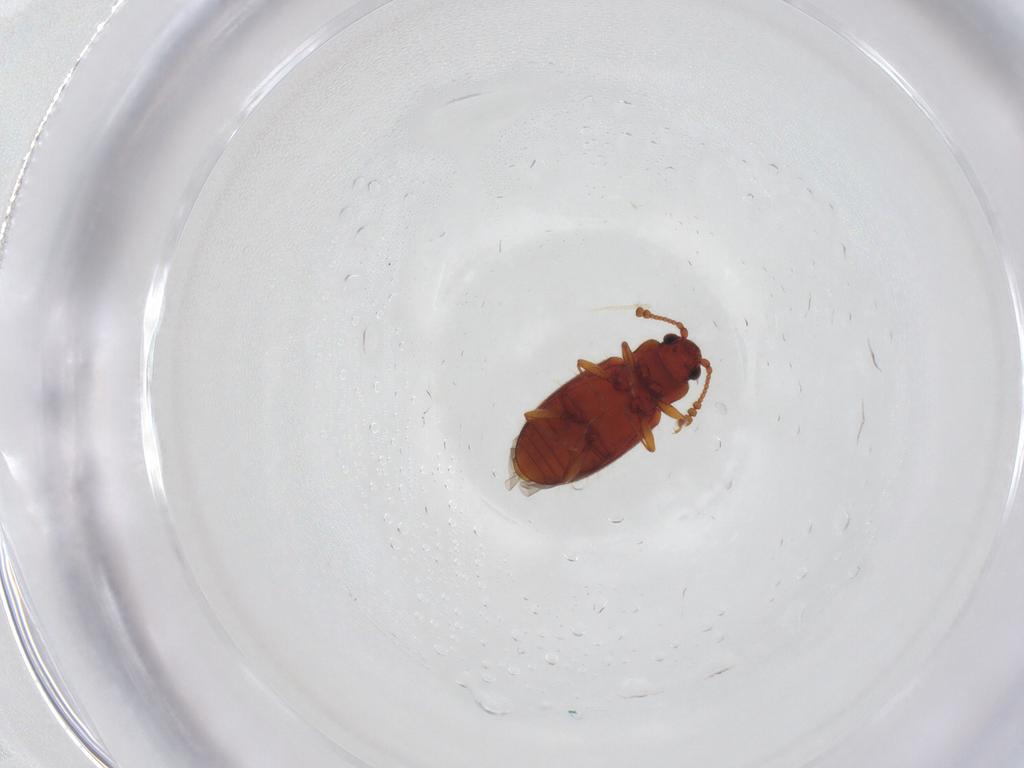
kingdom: Animalia
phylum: Arthropoda
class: Insecta
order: Coleoptera
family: Cryptophagidae
